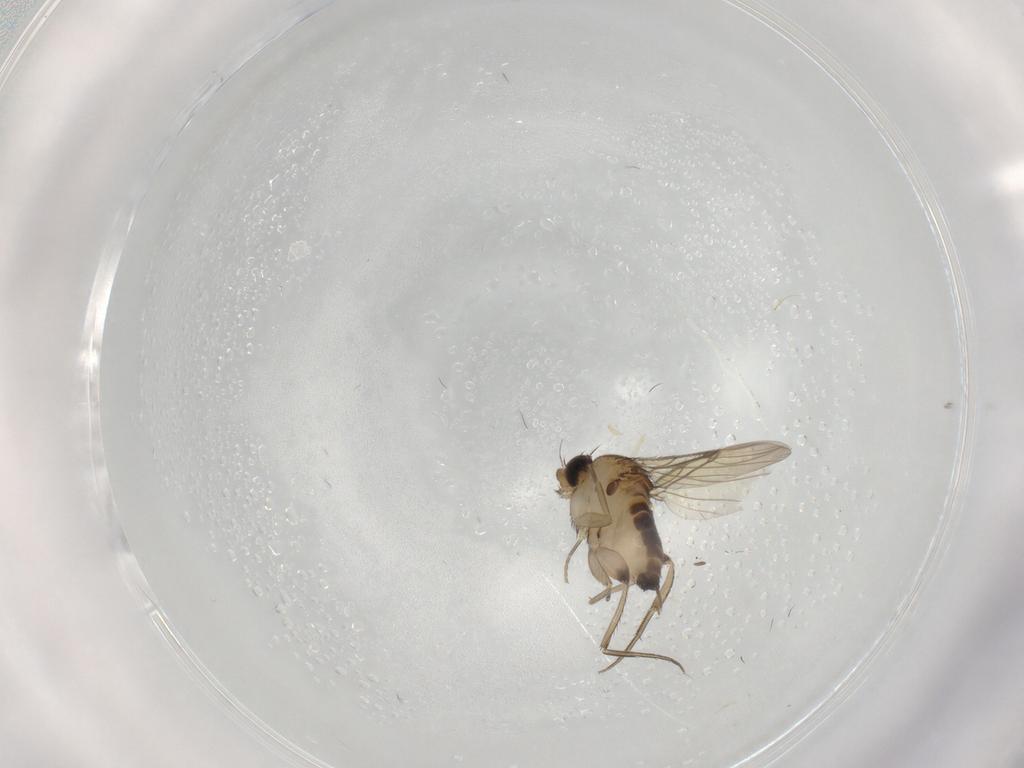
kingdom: Animalia
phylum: Arthropoda
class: Insecta
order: Diptera
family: Phoridae
